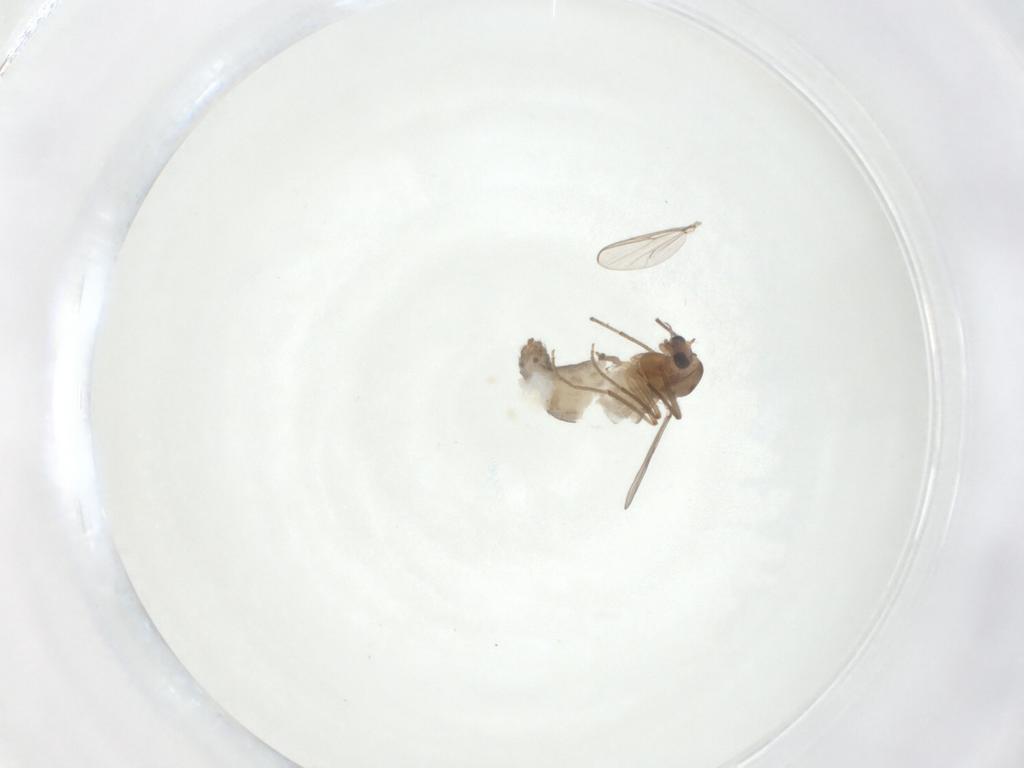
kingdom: Animalia
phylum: Arthropoda
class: Insecta
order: Diptera
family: Chironomidae
